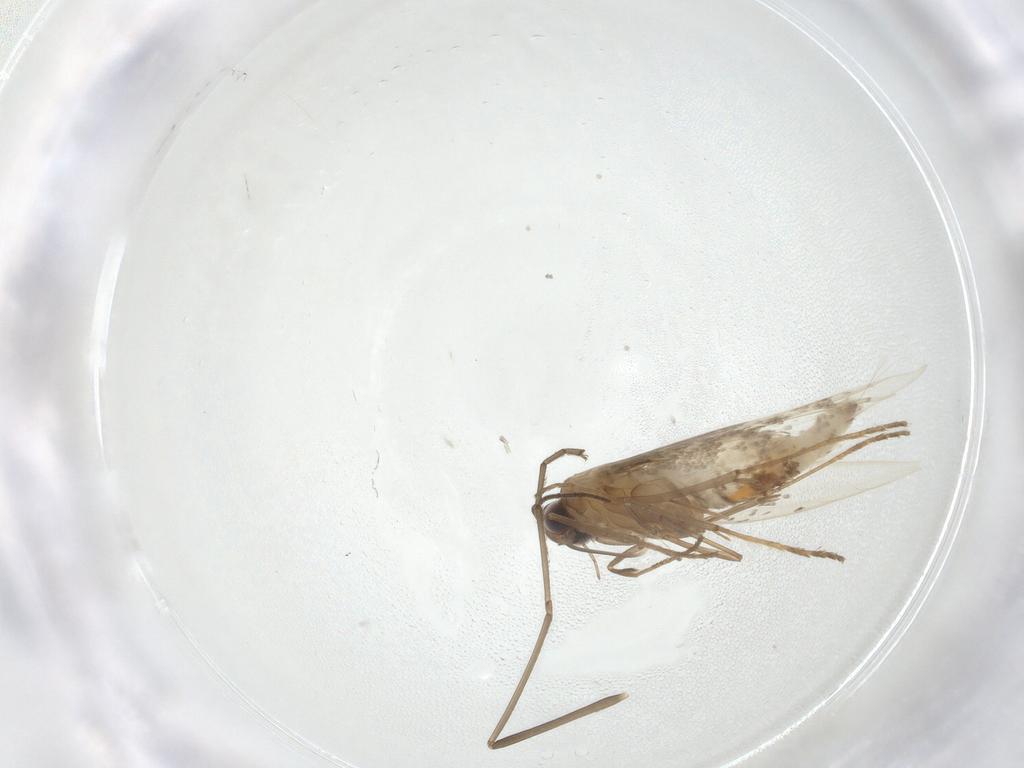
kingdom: Animalia
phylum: Arthropoda
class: Insecta
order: Lepidoptera
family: Gracillariidae
